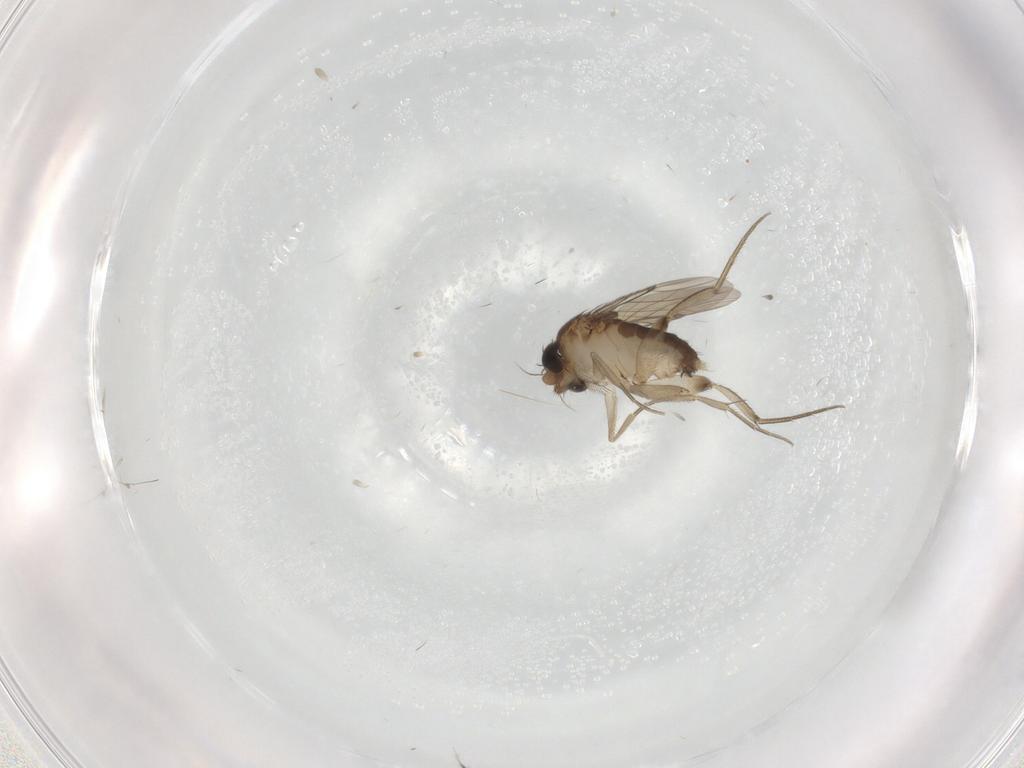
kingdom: Animalia
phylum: Arthropoda
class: Insecta
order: Diptera
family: Phoridae
